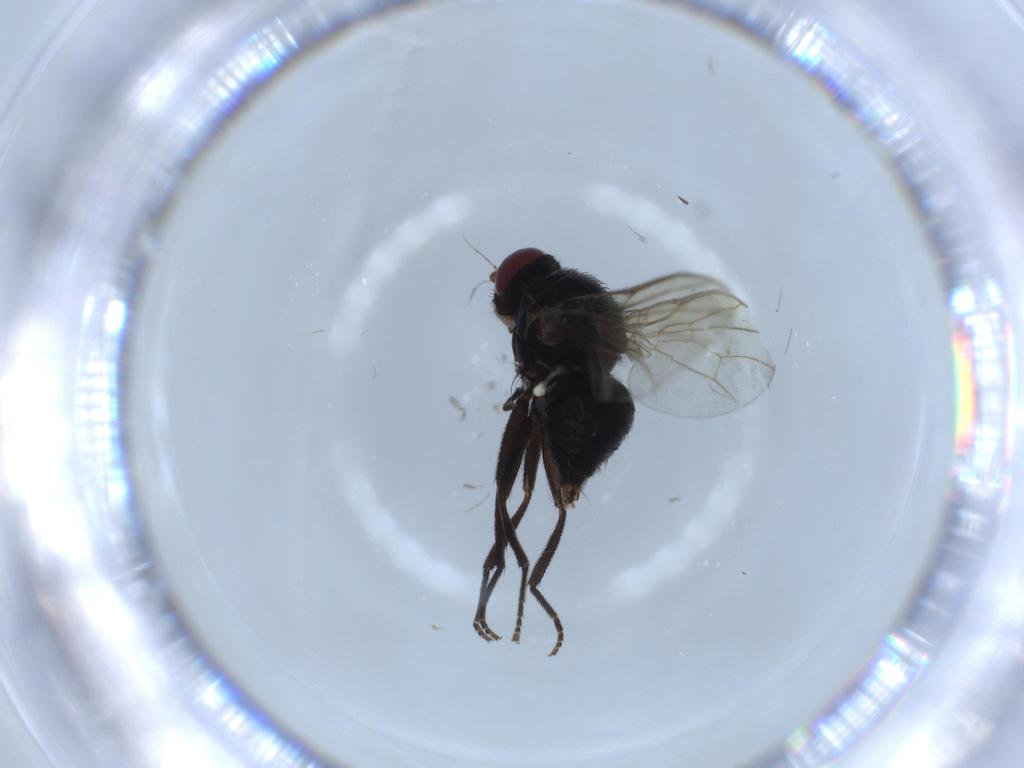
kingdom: Animalia
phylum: Arthropoda
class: Insecta
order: Diptera
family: Agromyzidae
